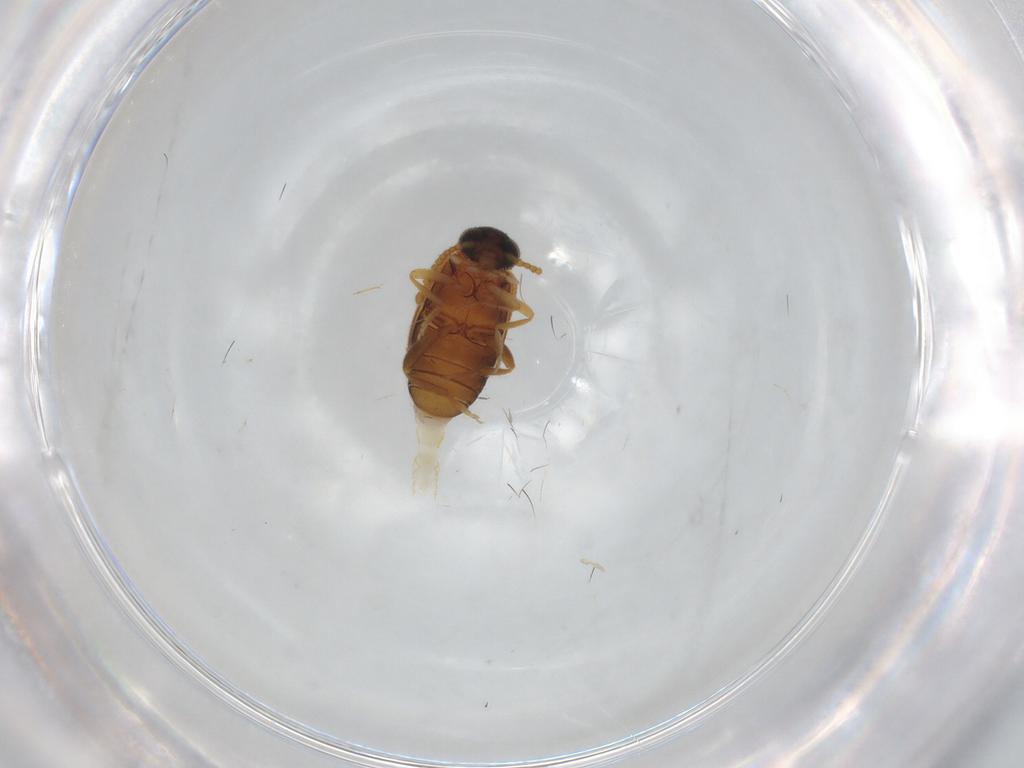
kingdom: Animalia
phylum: Arthropoda
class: Insecta
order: Coleoptera
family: Aderidae
